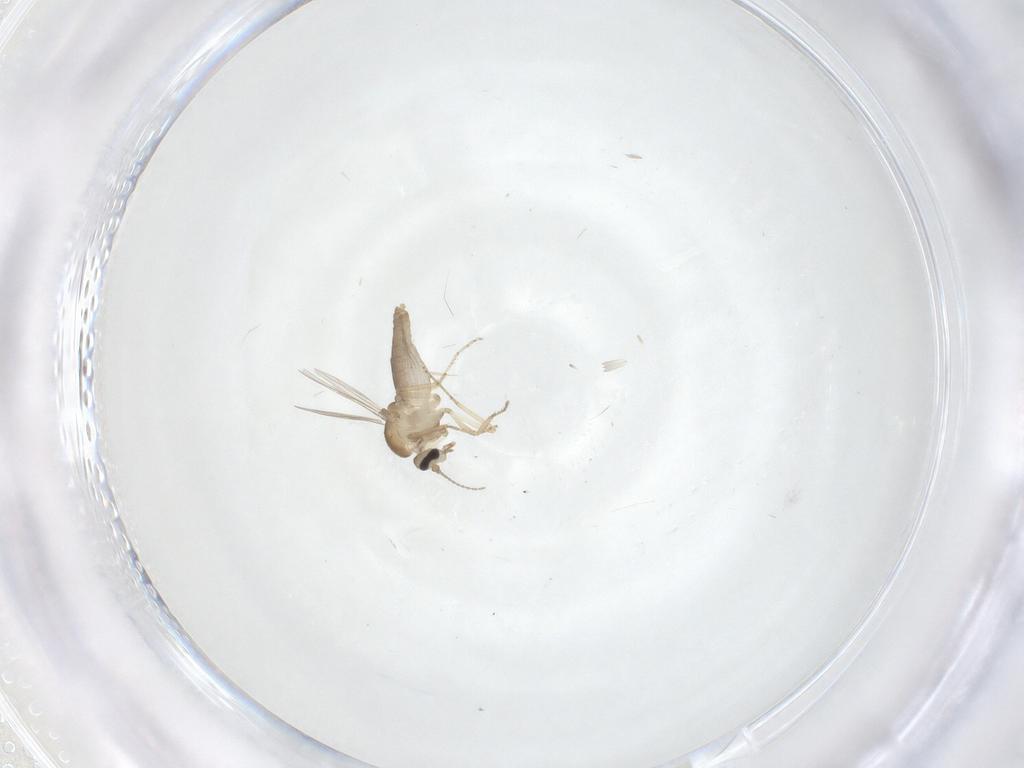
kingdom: Animalia
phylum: Arthropoda
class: Insecta
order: Diptera
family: Ceratopogonidae
